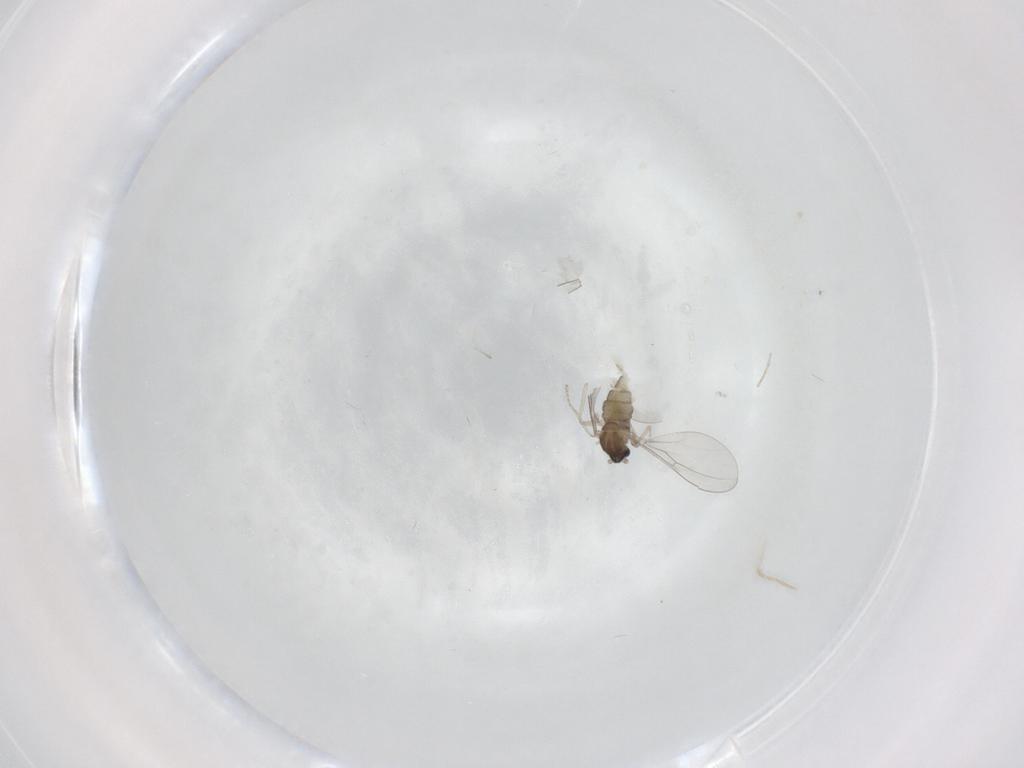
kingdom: Animalia
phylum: Arthropoda
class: Insecta
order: Diptera
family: Cecidomyiidae
